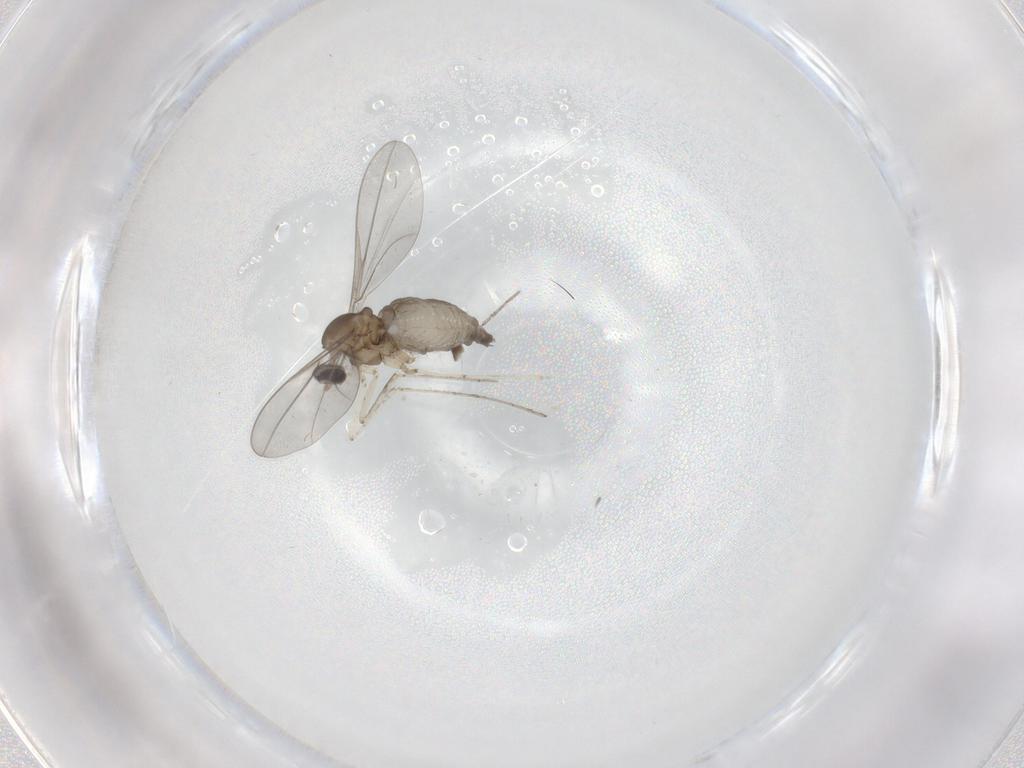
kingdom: Animalia
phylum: Arthropoda
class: Insecta
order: Diptera
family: Cecidomyiidae
